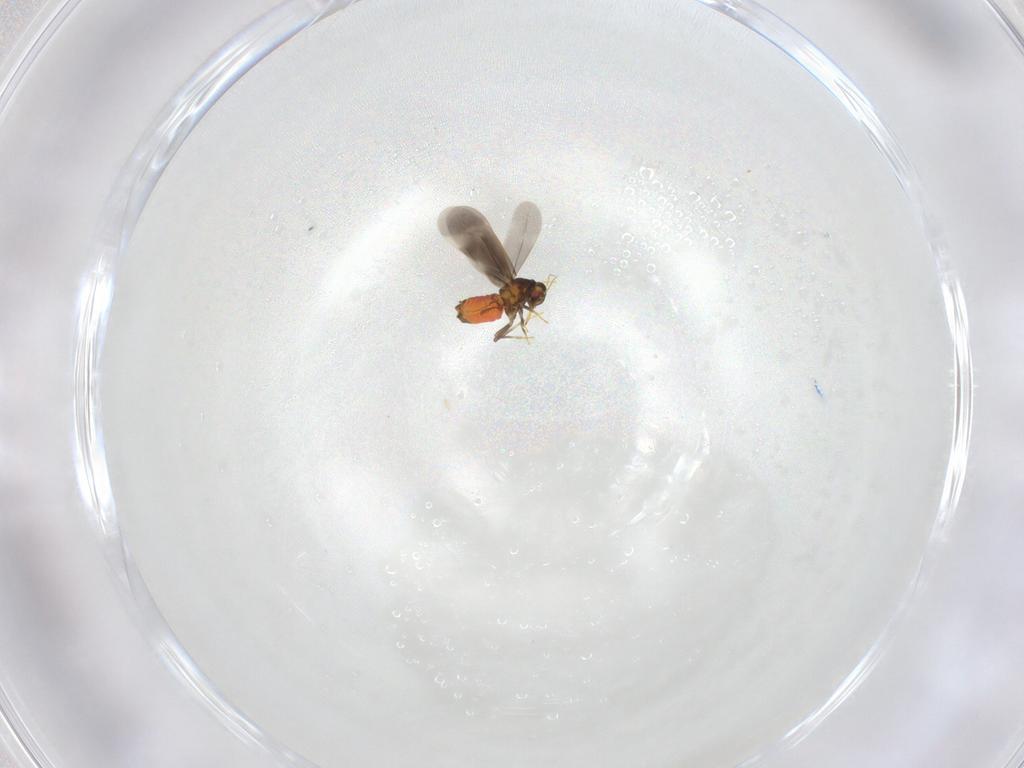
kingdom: Animalia
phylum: Arthropoda
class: Insecta
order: Hemiptera
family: Aleyrodidae
